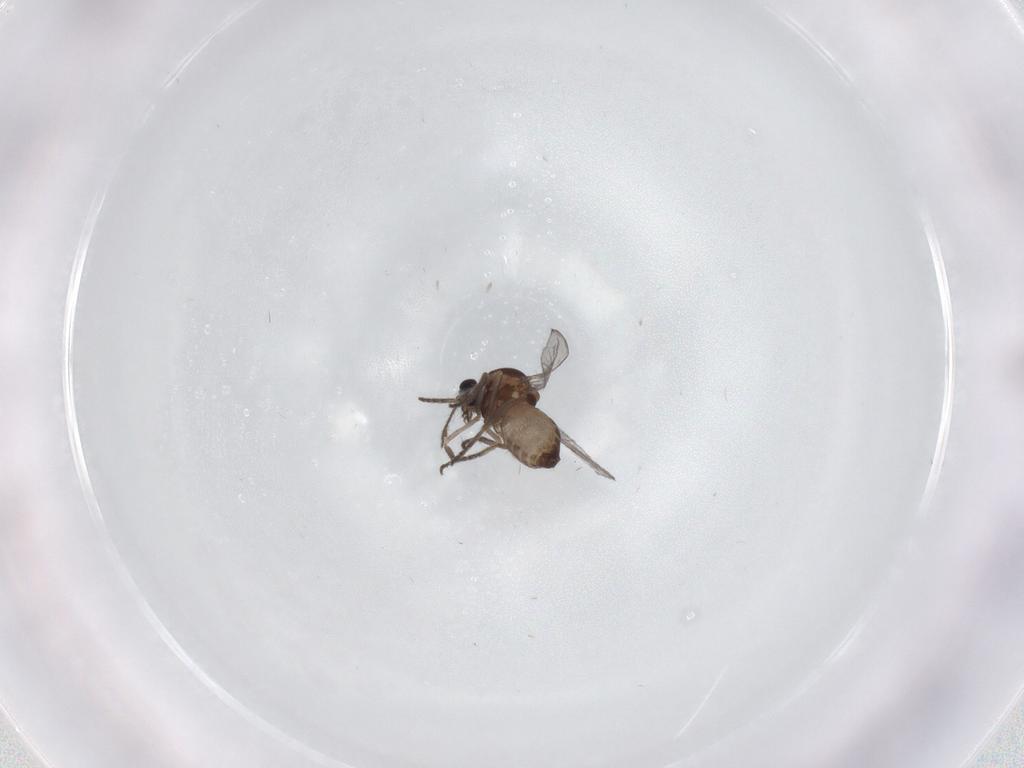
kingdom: Animalia
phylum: Arthropoda
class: Insecta
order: Diptera
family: Ceratopogonidae
